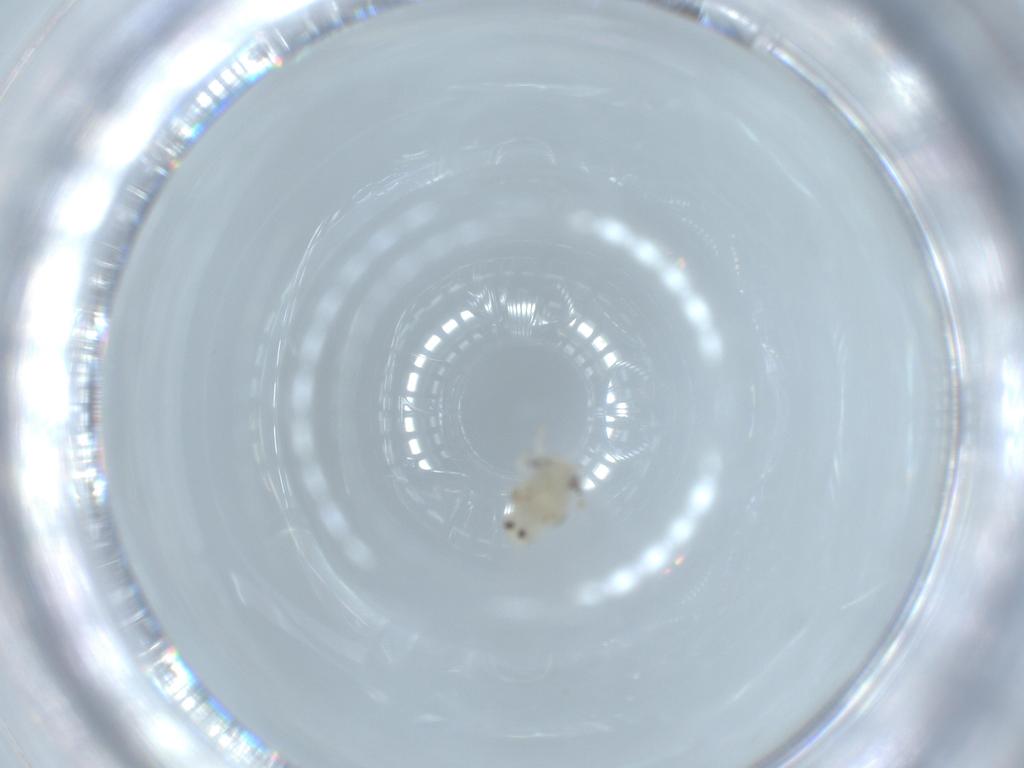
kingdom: Animalia
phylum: Arthropoda
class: Insecta
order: Hemiptera
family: Nogodinidae
